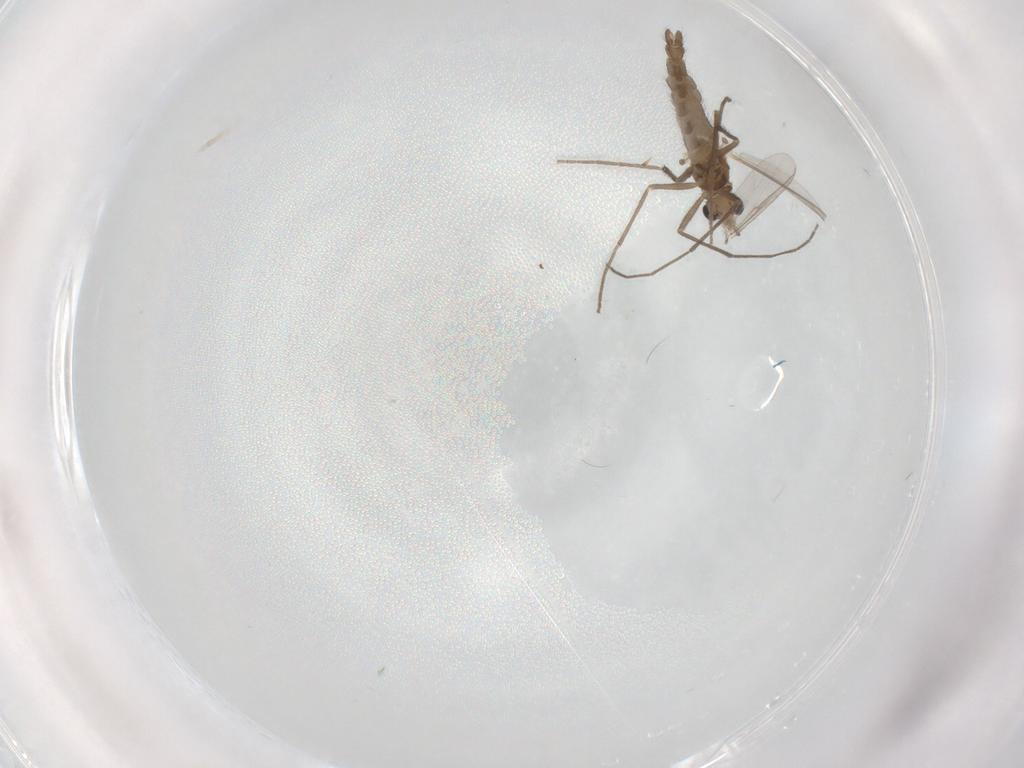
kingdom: Animalia
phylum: Arthropoda
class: Insecta
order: Diptera
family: Chironomidae
